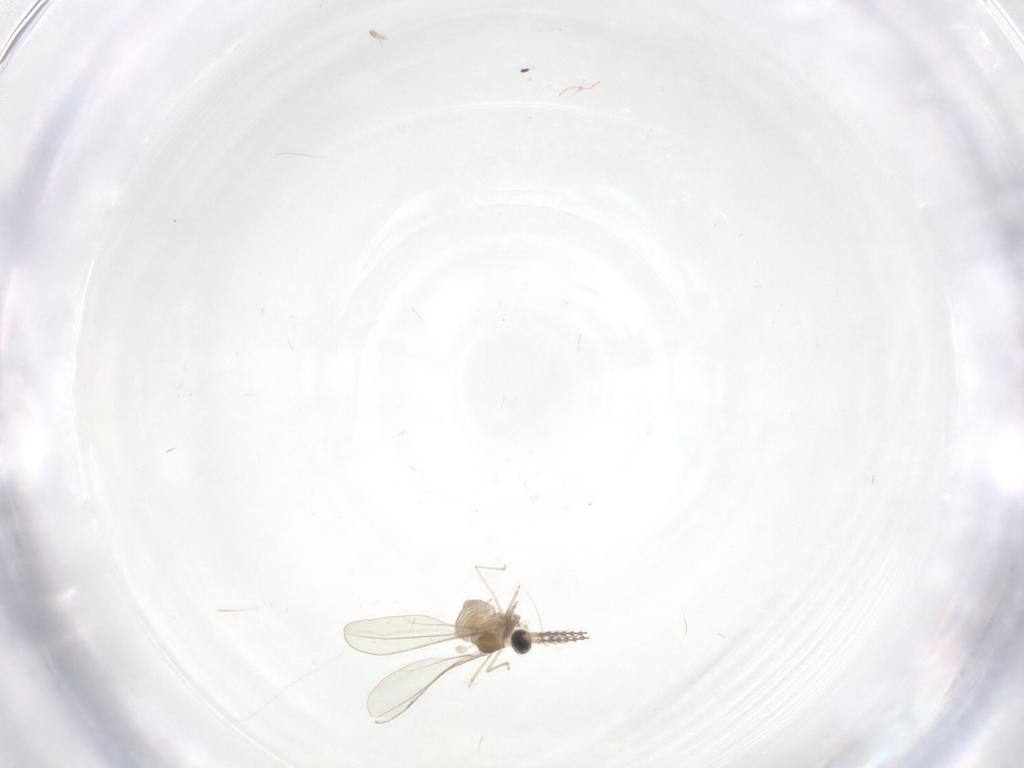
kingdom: Animalia
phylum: Arthropoda
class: Insecta
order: Diptera
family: Cecidomyiidae
